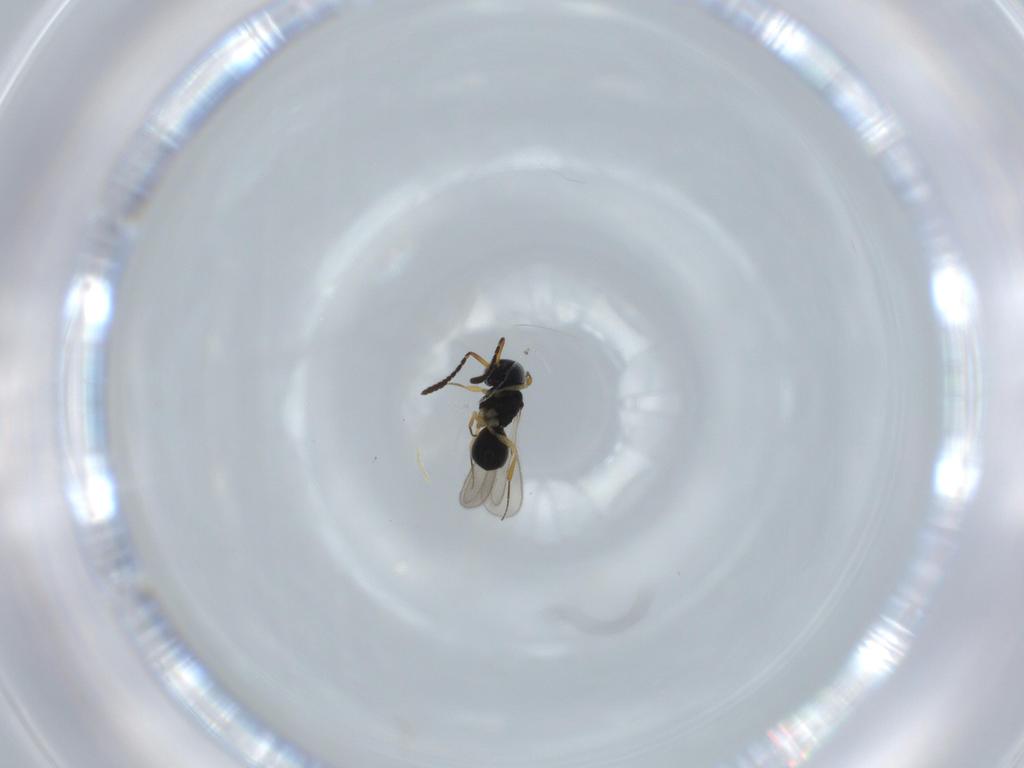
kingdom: Animalia
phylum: Arthropoda
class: Insecta
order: Hymenoptera
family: Scelionidae
